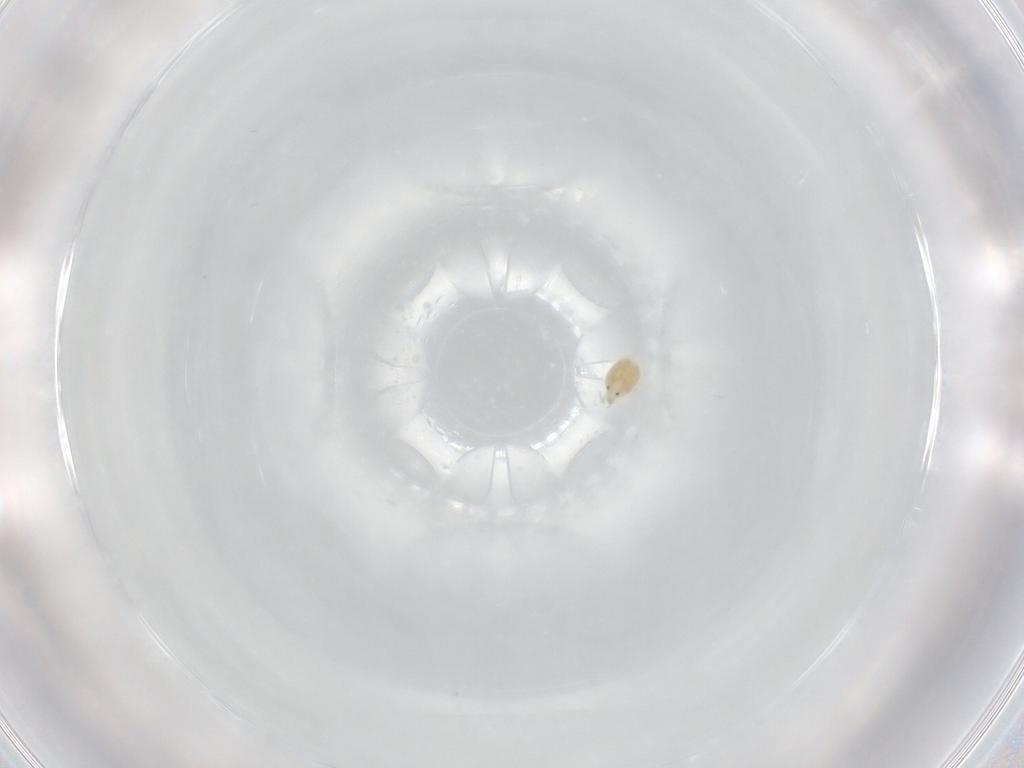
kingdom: Animalia
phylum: Arthropoda
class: Arachnida
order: Trombidiformes
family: Hygrobatidae
